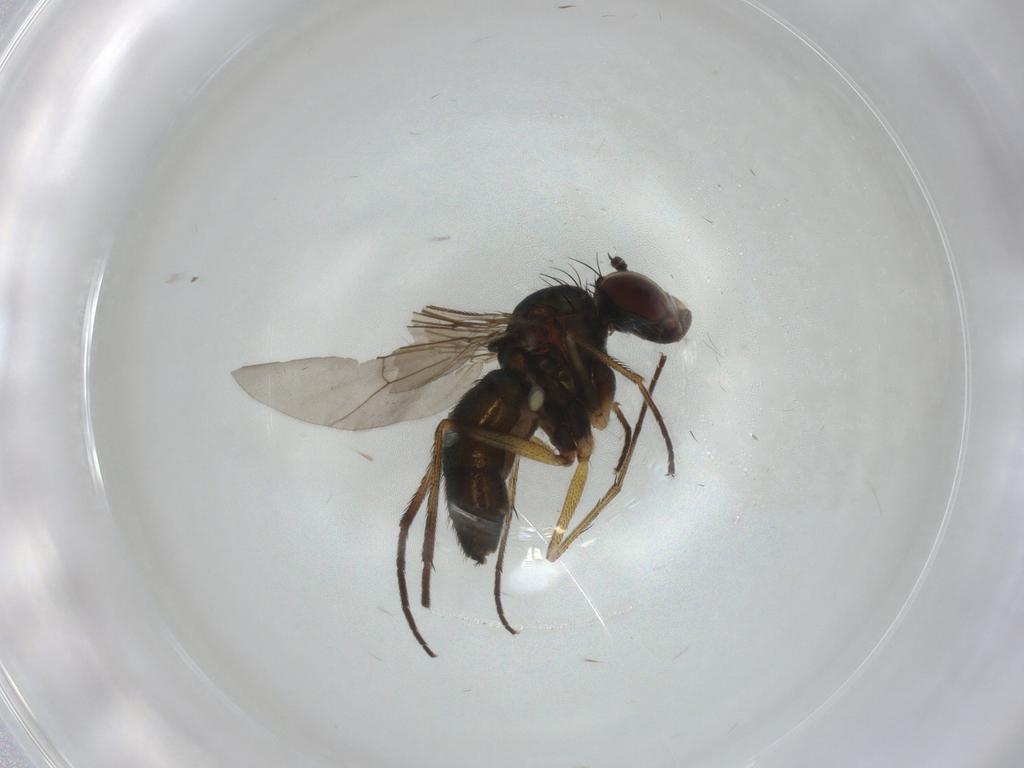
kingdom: Animalia
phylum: Arthropoda
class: Insecta
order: Diptera
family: Dolichopodidae
